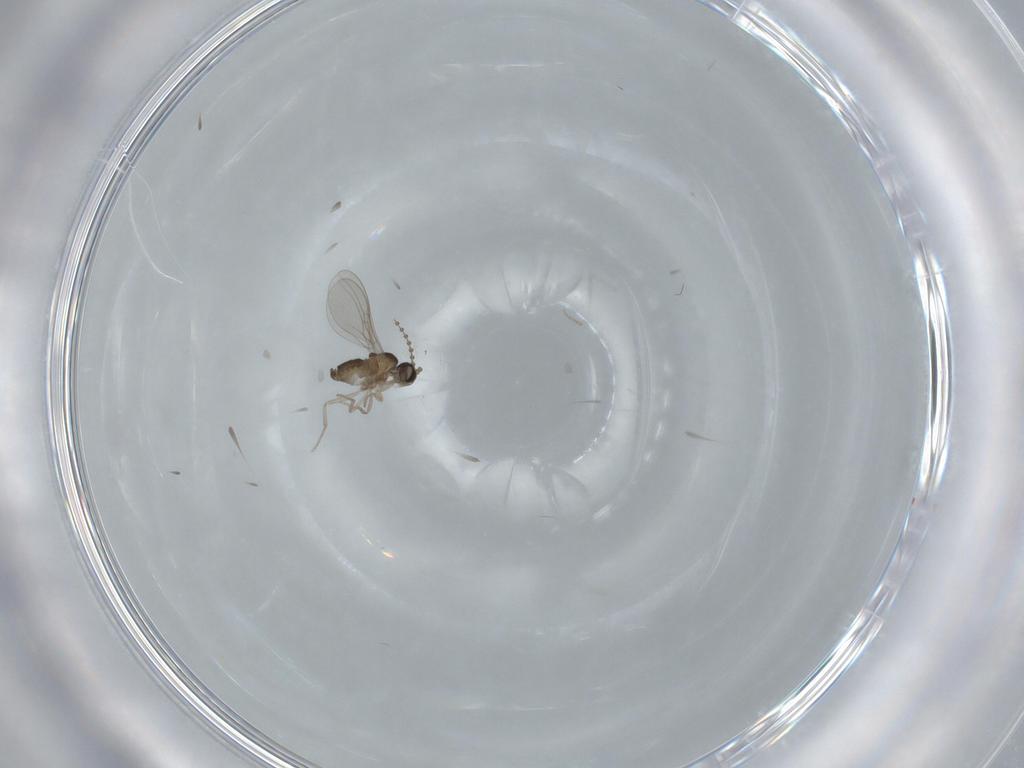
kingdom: Animalia
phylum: Arthropoda
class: Insecta
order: Diptera
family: Cecidomyiidae
